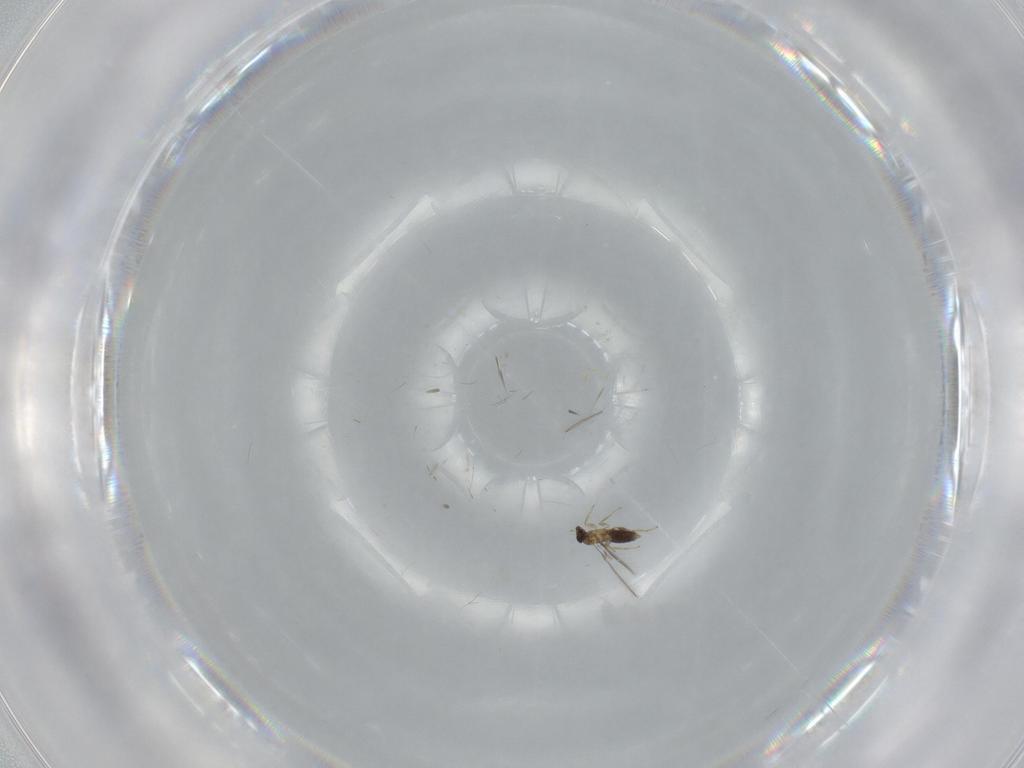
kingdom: Animalia
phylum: Arthropoda
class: Insecta
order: Hymenoptera
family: Mymaridae
